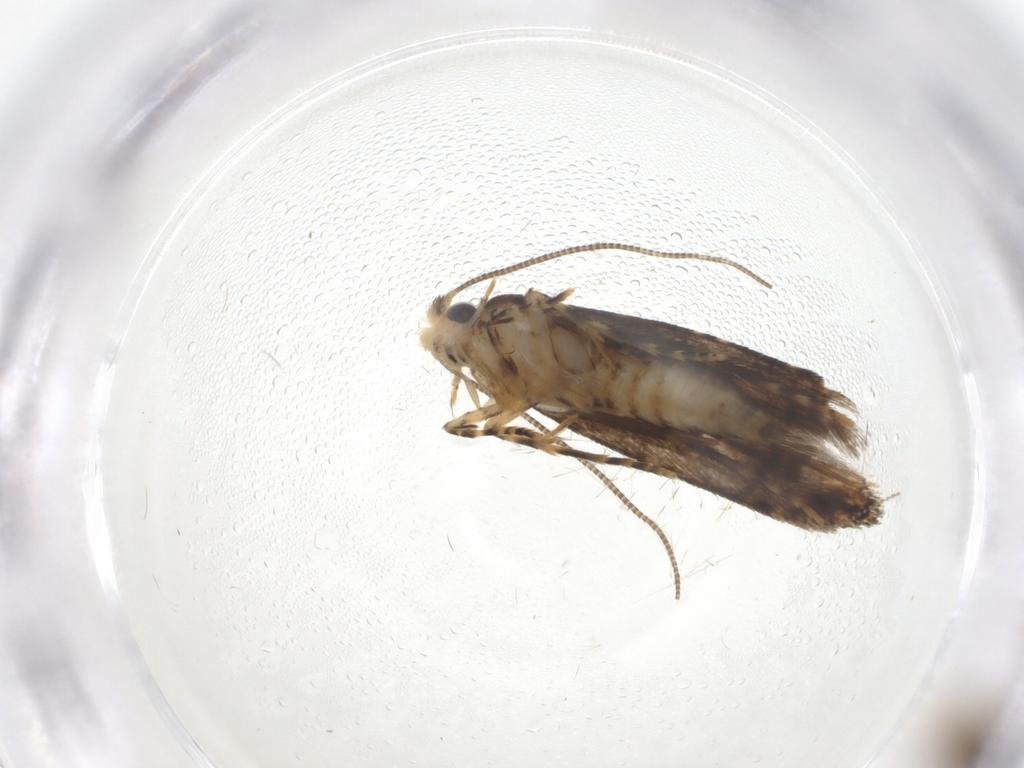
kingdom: Animalia
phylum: Arthropoda
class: Insecta
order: Lepidoptera
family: Tineidae
